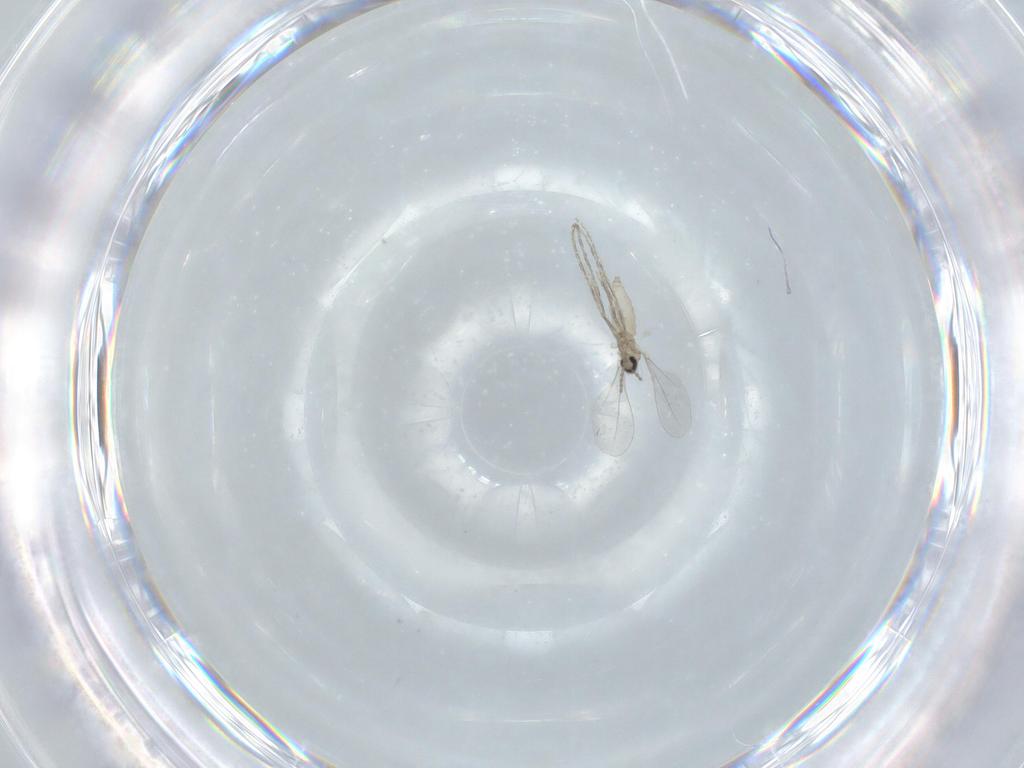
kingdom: Animalia
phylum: Arthropoda
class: Insecta
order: Diptera
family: Cecidomyiidae
